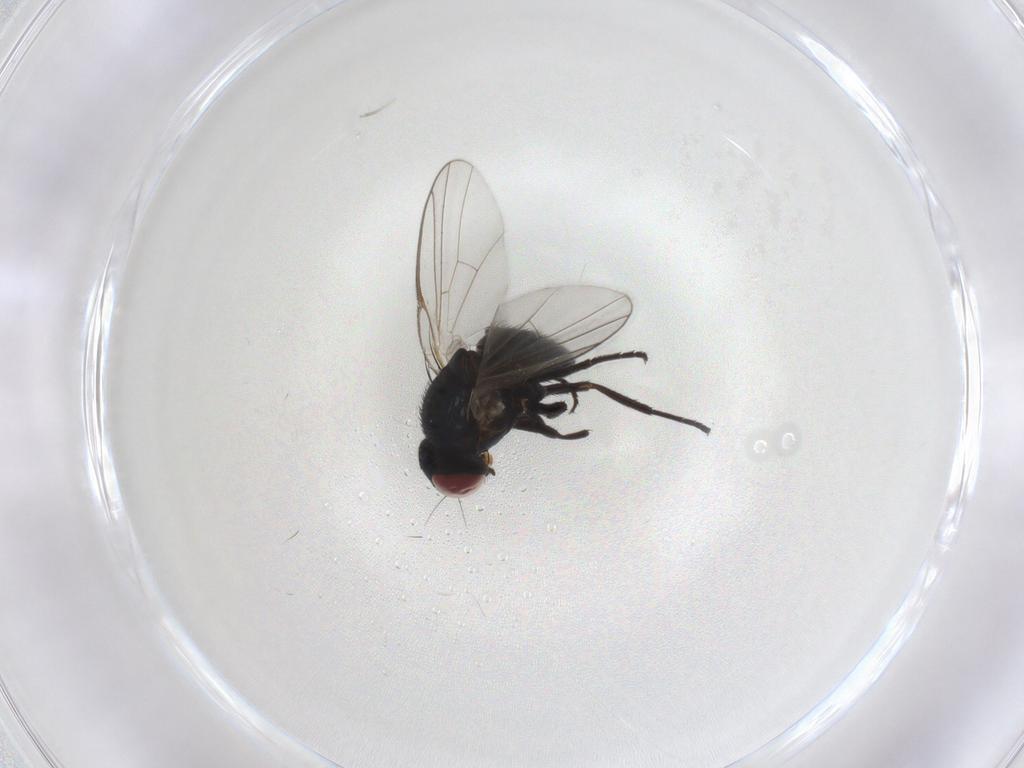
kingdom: Animalia
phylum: Arthropoda
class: Insecta
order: Diptera
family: Agromyzidae
